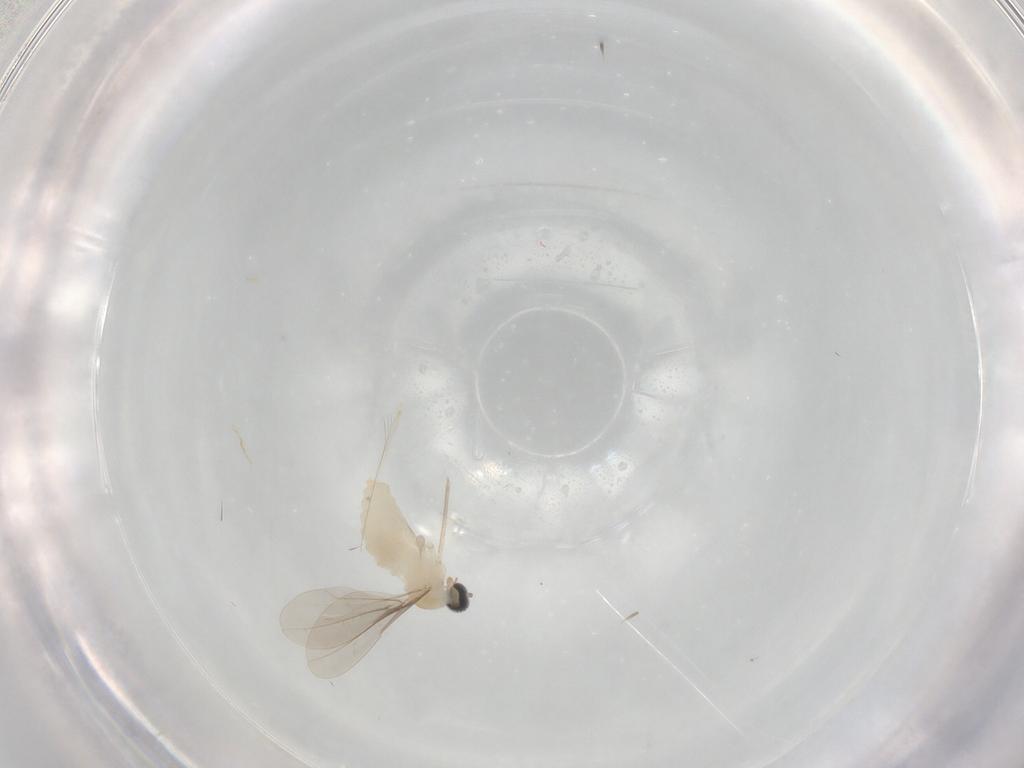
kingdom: Animalia
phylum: Arthropoda
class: Insecta
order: Diptera
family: Cecidomyiidae
